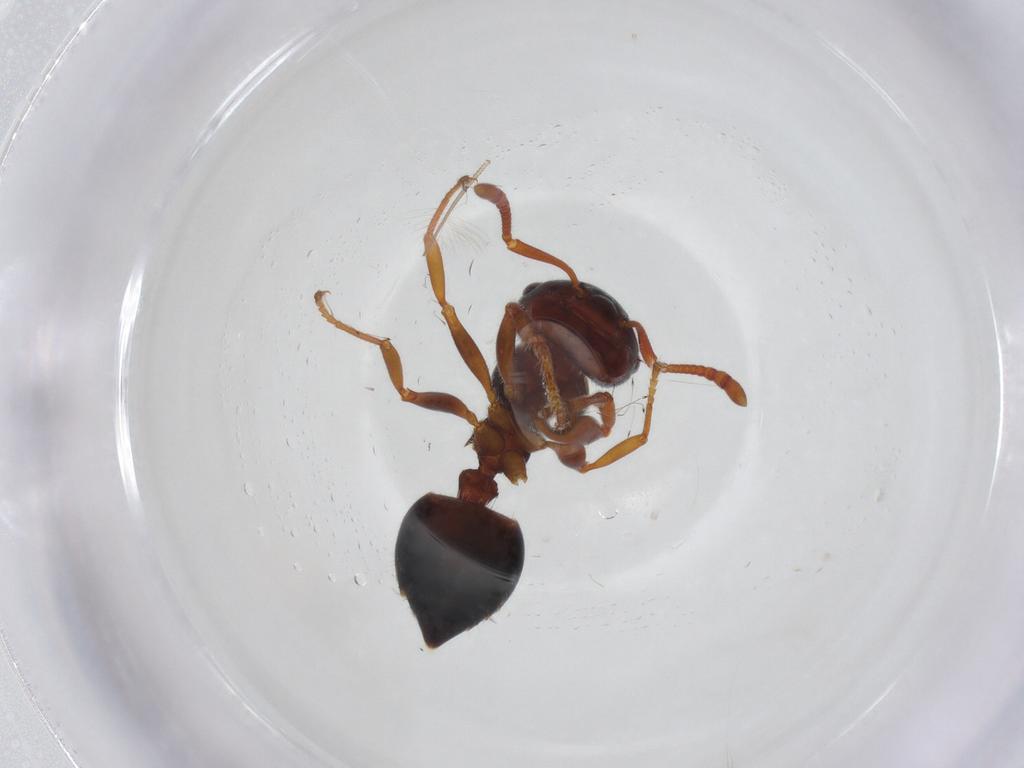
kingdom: Animalia
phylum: Arthropoda
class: Insecta
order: Hymenoptera
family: Formicidae
